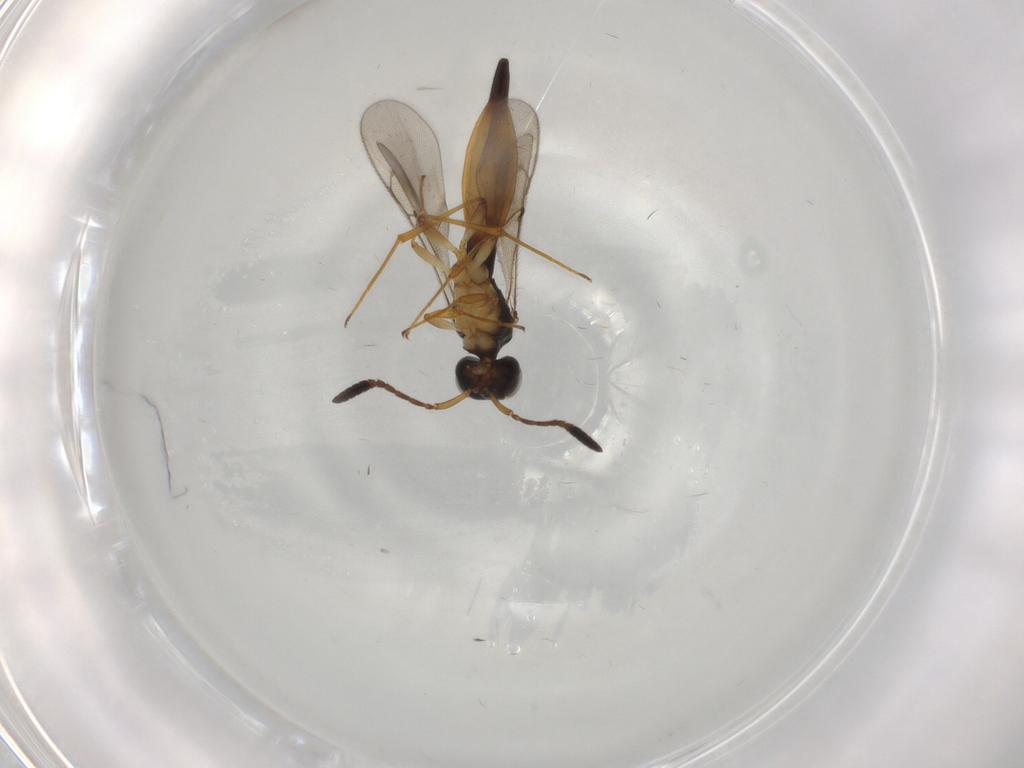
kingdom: Animalia
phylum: Arthropoda
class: Insecta
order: Hymenoptera
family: Scelionidae
